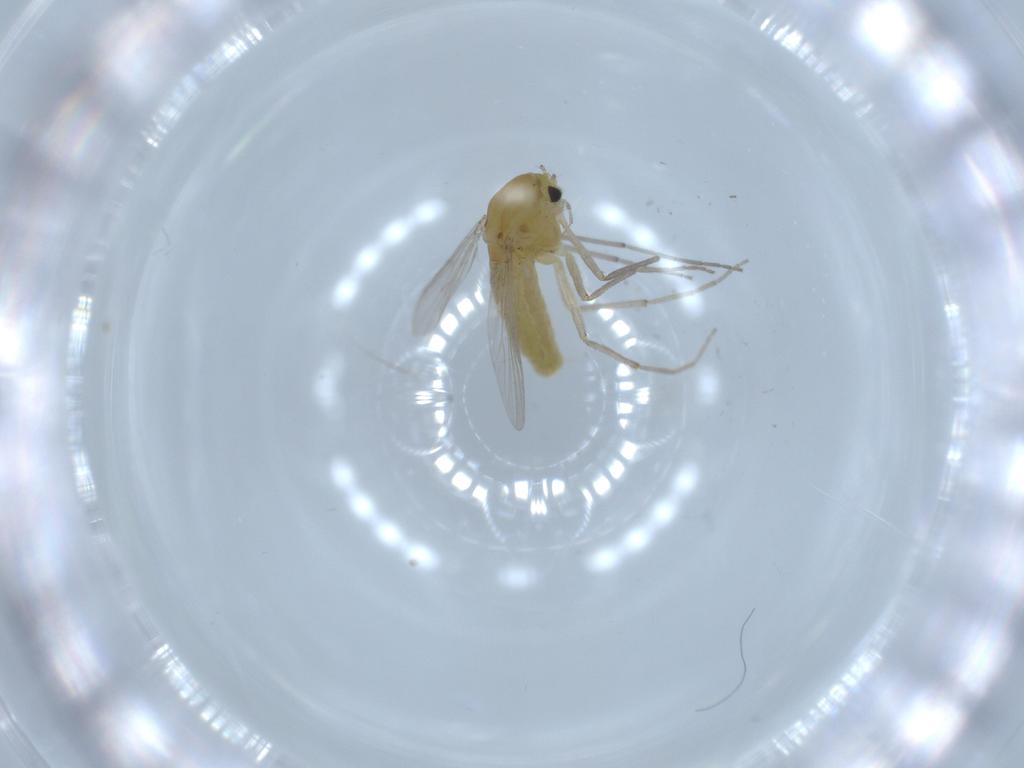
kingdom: Animalia
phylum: Arthropoda
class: Insecta
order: Diptera
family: Chironomidae
